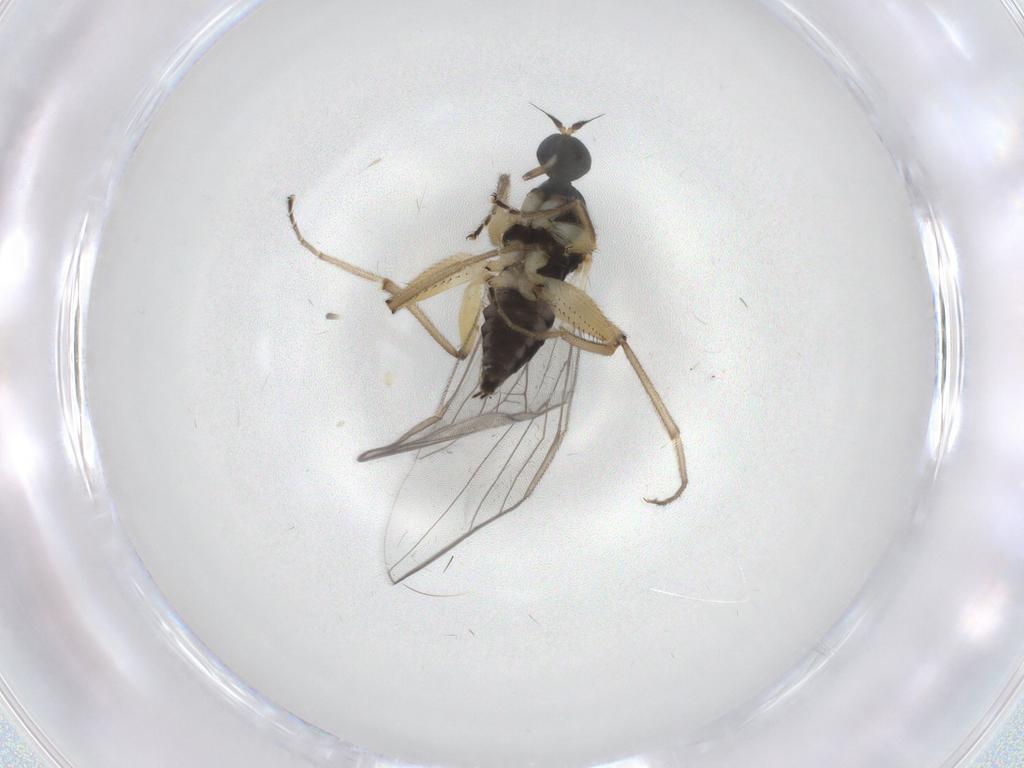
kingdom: Animalia
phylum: Arthropoda
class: Insecta
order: Diptera
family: Hybotidae
